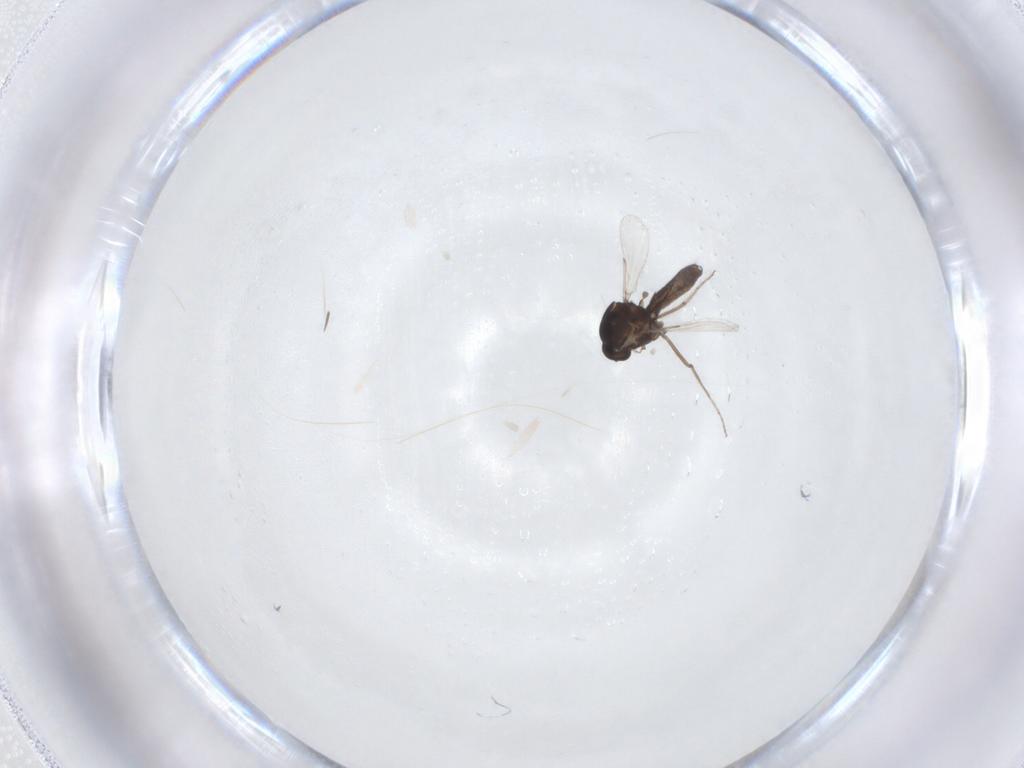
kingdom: Animalia
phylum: Arthropoda
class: Insecta
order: Diptera
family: Ceratopogonidae
